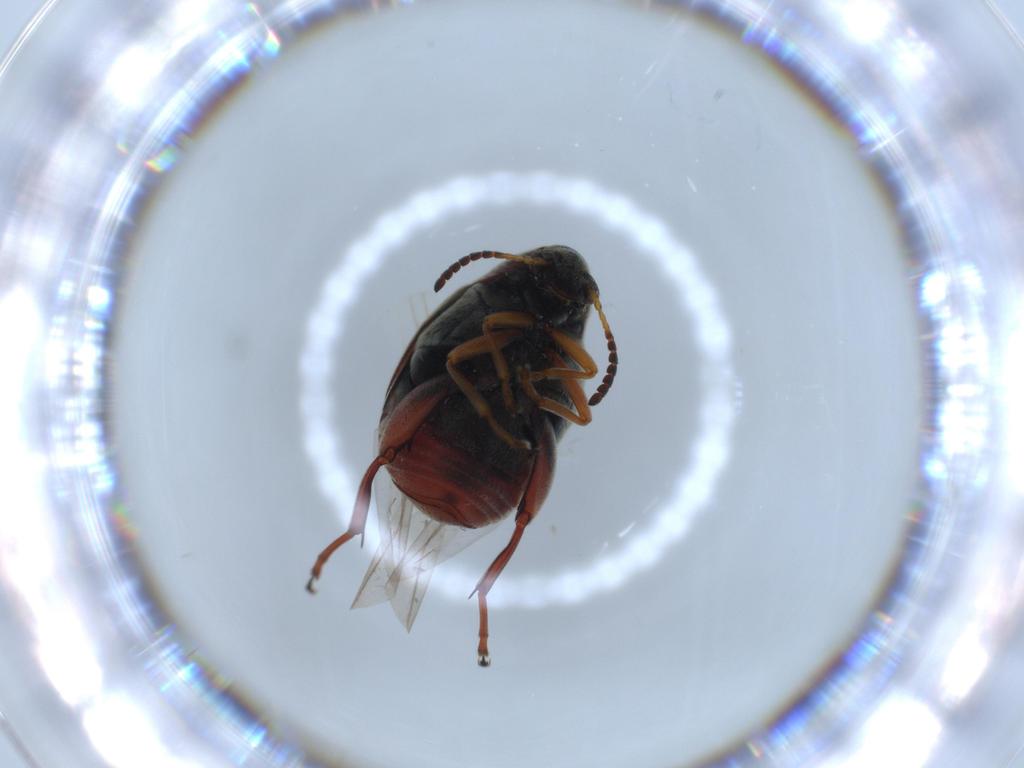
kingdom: Animalia
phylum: Arthropoda
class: Insecta
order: Coleoptera
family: Chrysomelidae
